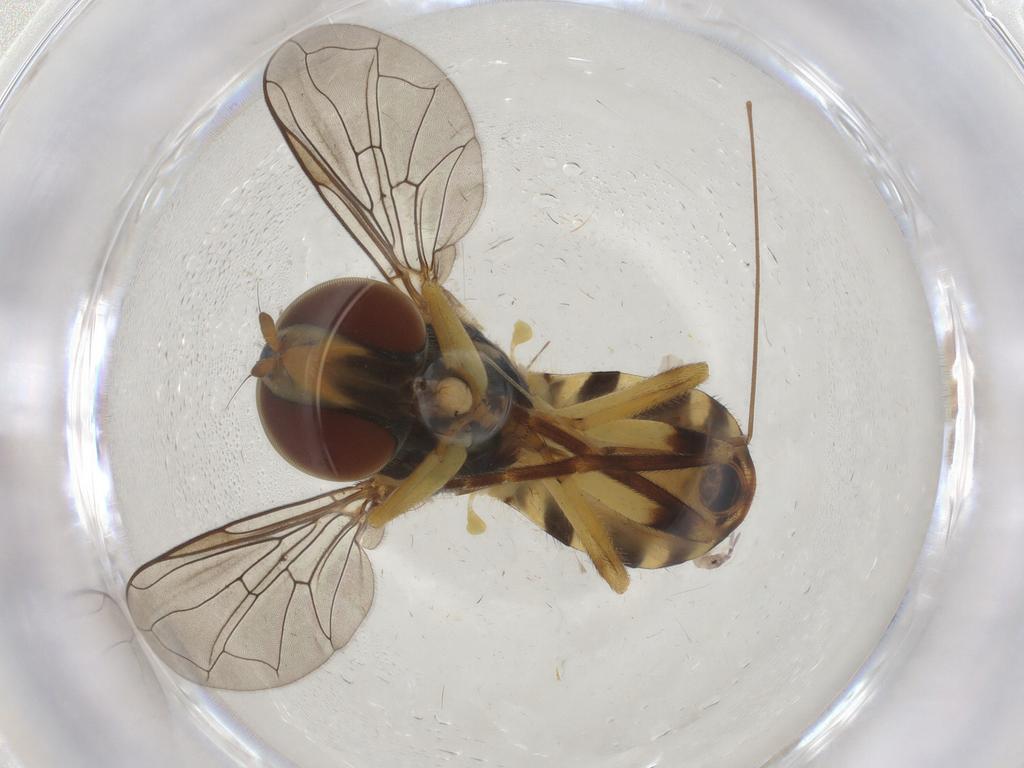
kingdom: Animalia
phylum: Arthropoda
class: Insecta
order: Diptera
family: Syrphidae
